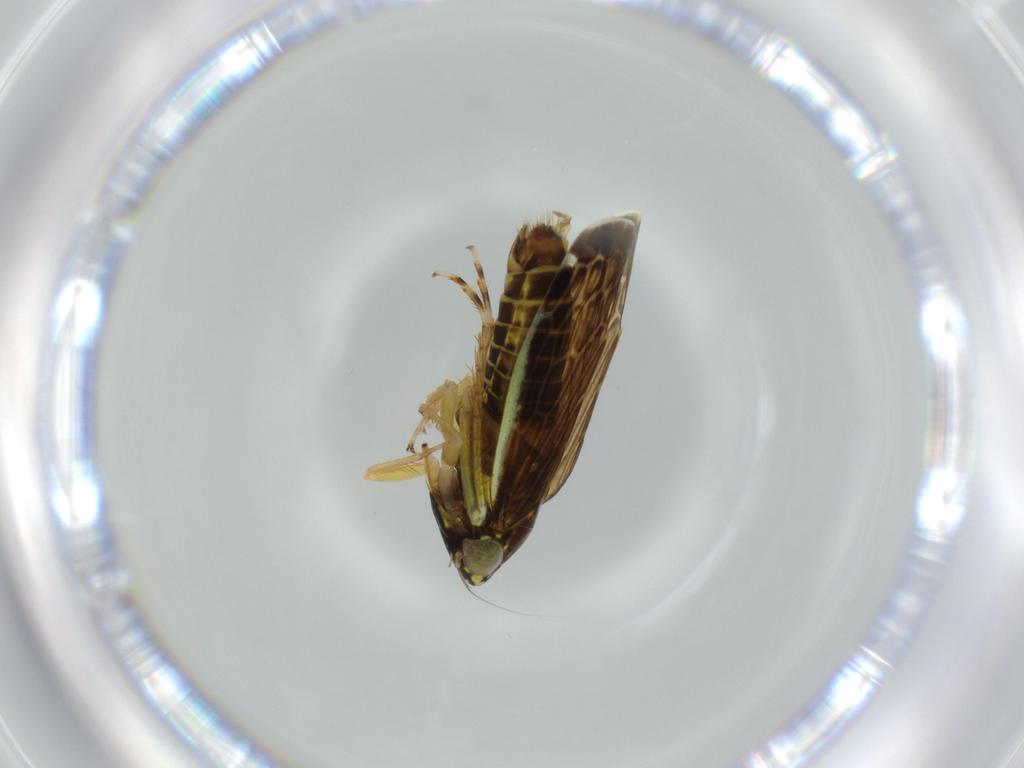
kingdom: Animalia
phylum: Arthropoda
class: Insecta
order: Hemiptera
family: Cicadellidae
